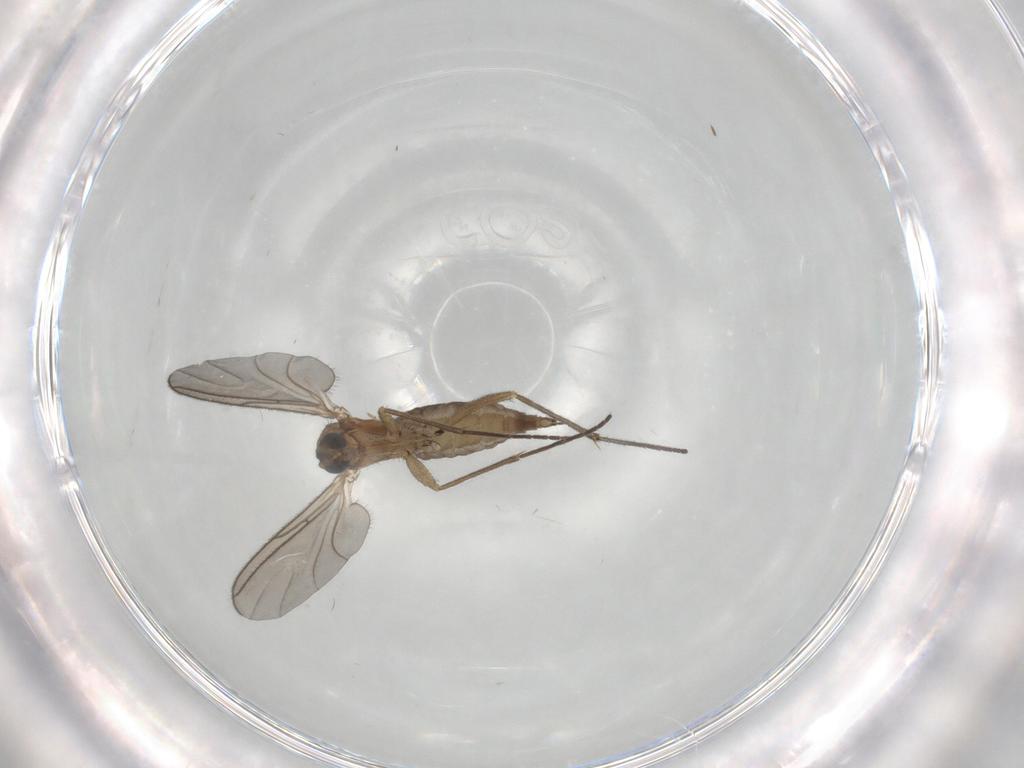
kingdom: Animalia
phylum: Arthropoda
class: Insecta
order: Diptera
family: Sciaridae
